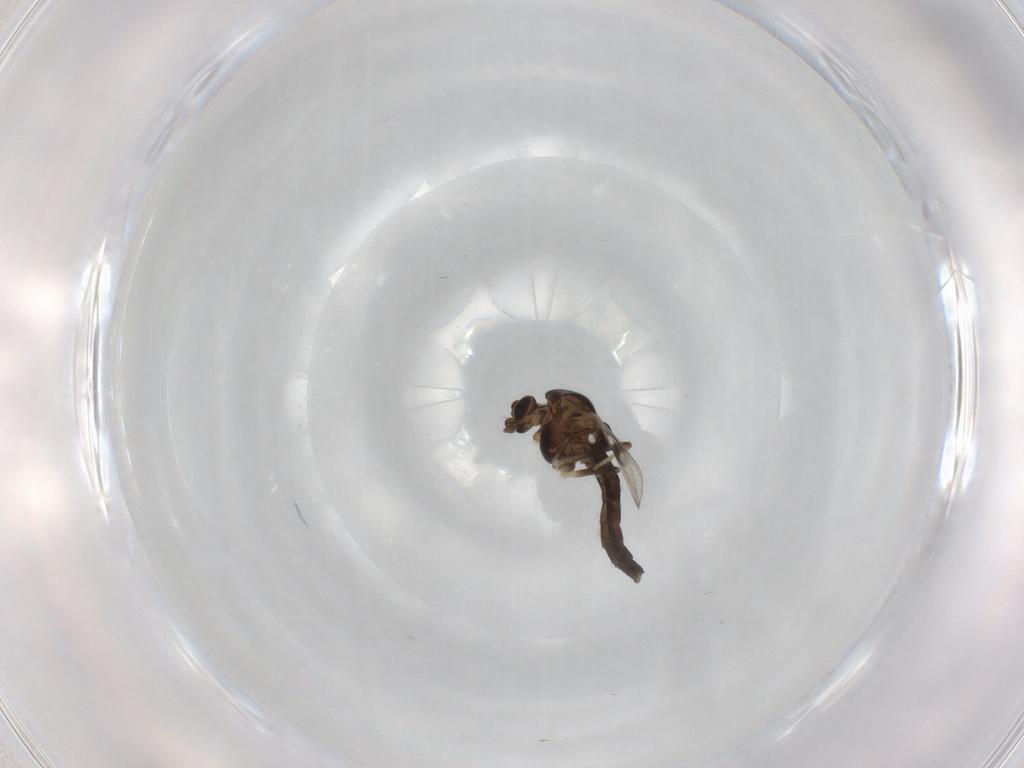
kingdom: Animalia
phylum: Arthropoda
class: Insecta
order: Diptera
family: Chironomidae
